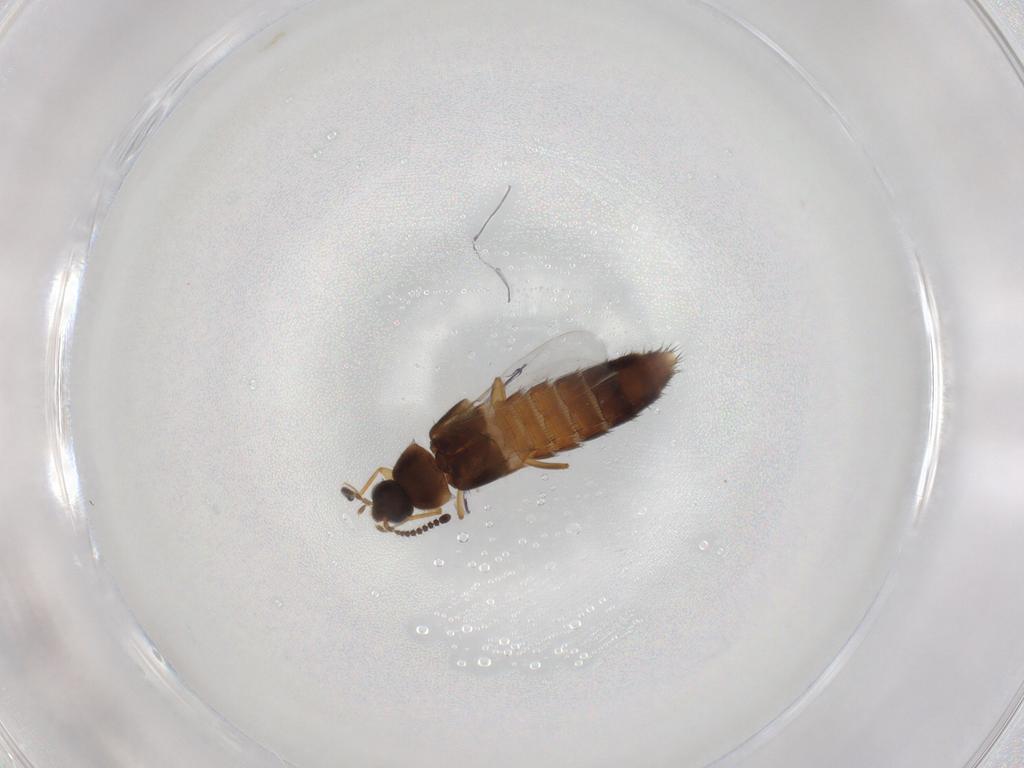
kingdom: Animalia
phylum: Arthropoda
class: Insecta
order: Coleoptera
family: Staphylinidae
